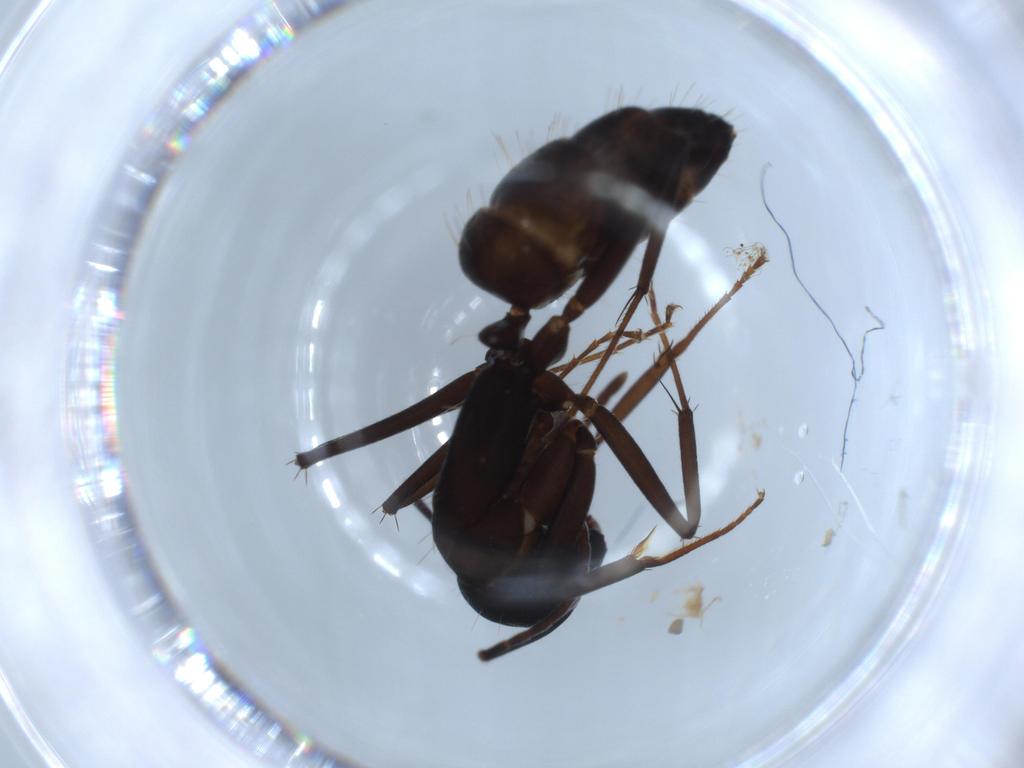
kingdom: Animalia
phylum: Arthropoda
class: Insecta
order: Hymenoptera
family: Formicidae
